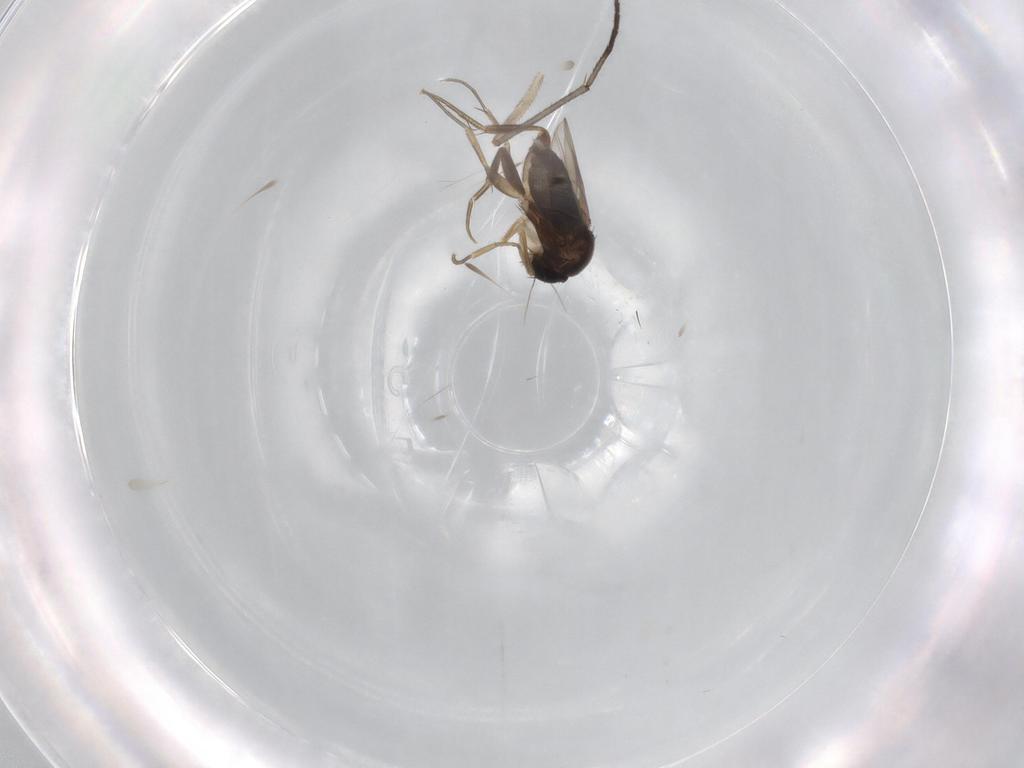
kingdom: Animalia
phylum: Arthropoda
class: Insecta
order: Diptera
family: Phoridae
